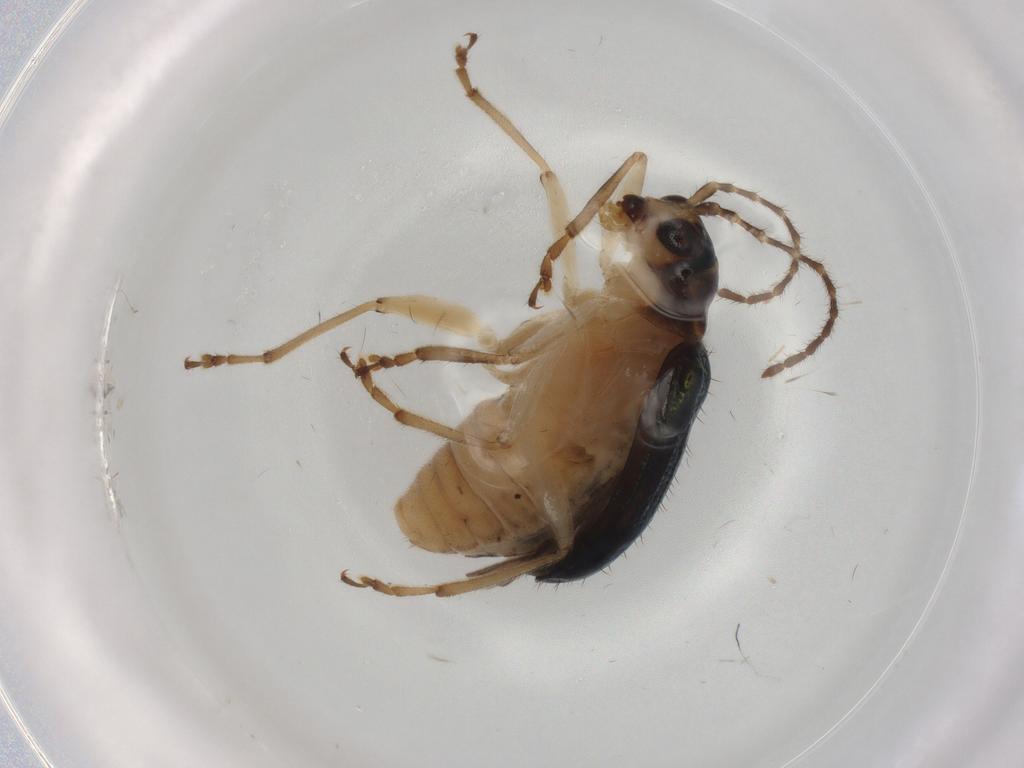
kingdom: Animalia
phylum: Arthropoda
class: Insecta
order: Coleoptera
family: Chrysomelidae
